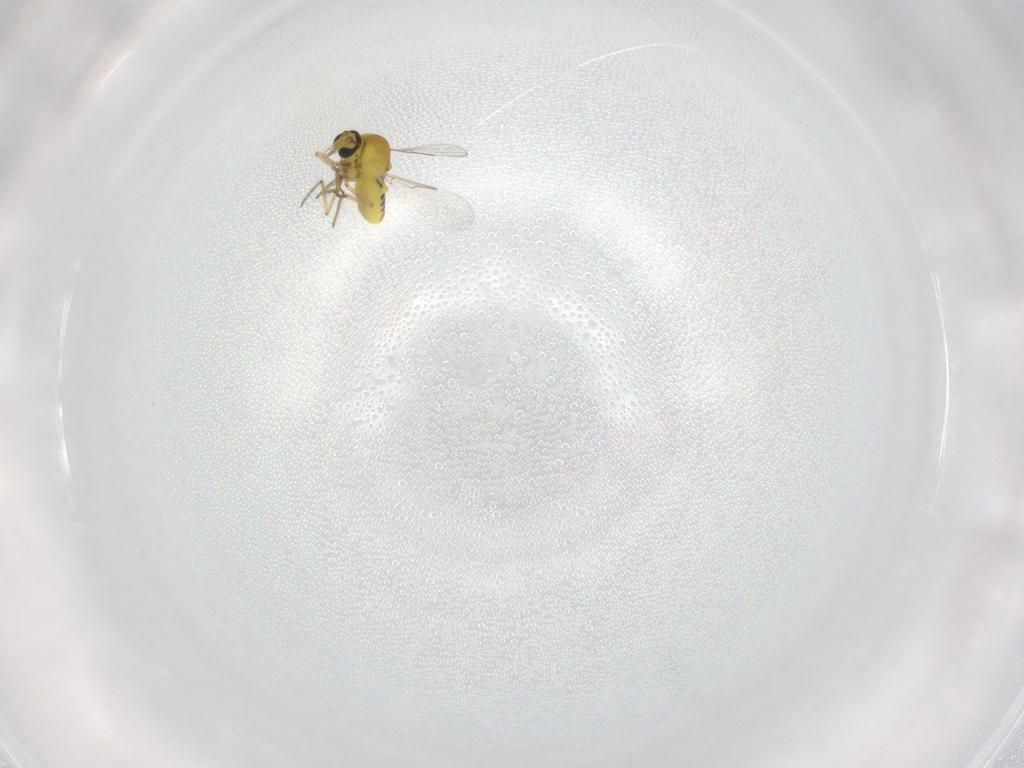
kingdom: Animalia
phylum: Arthropoda
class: Insecta
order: Diptera
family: Ceratopogonidae
